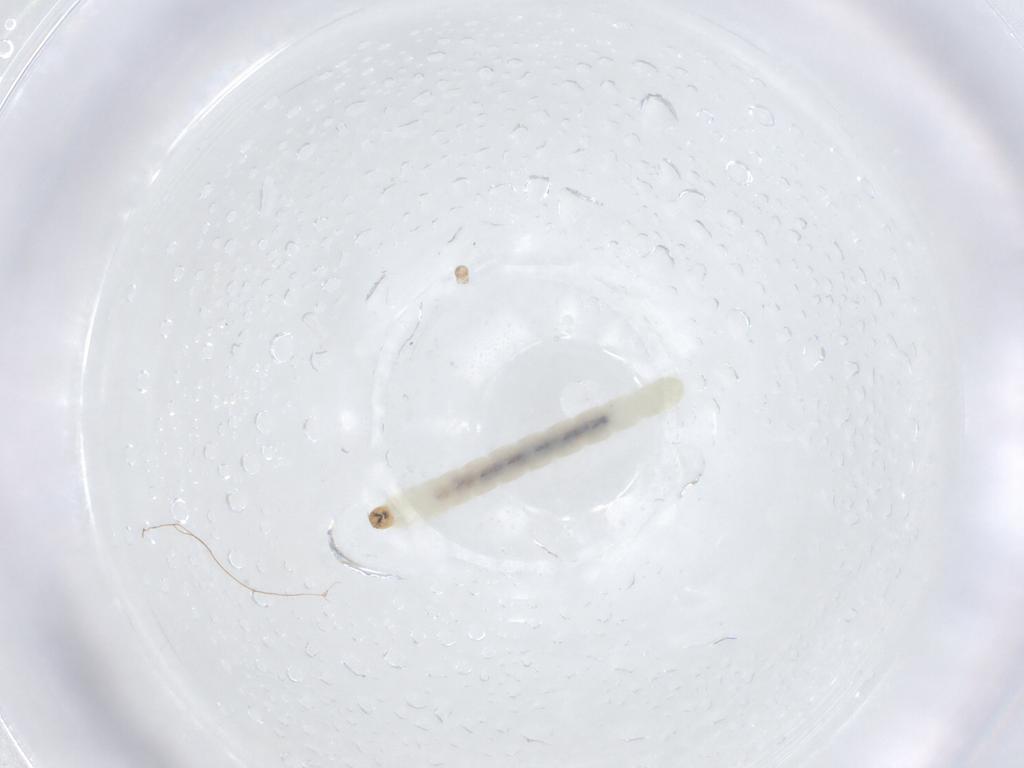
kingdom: Animalia
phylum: Arthropoda
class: Insecta
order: Diptera
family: Chironomidae
